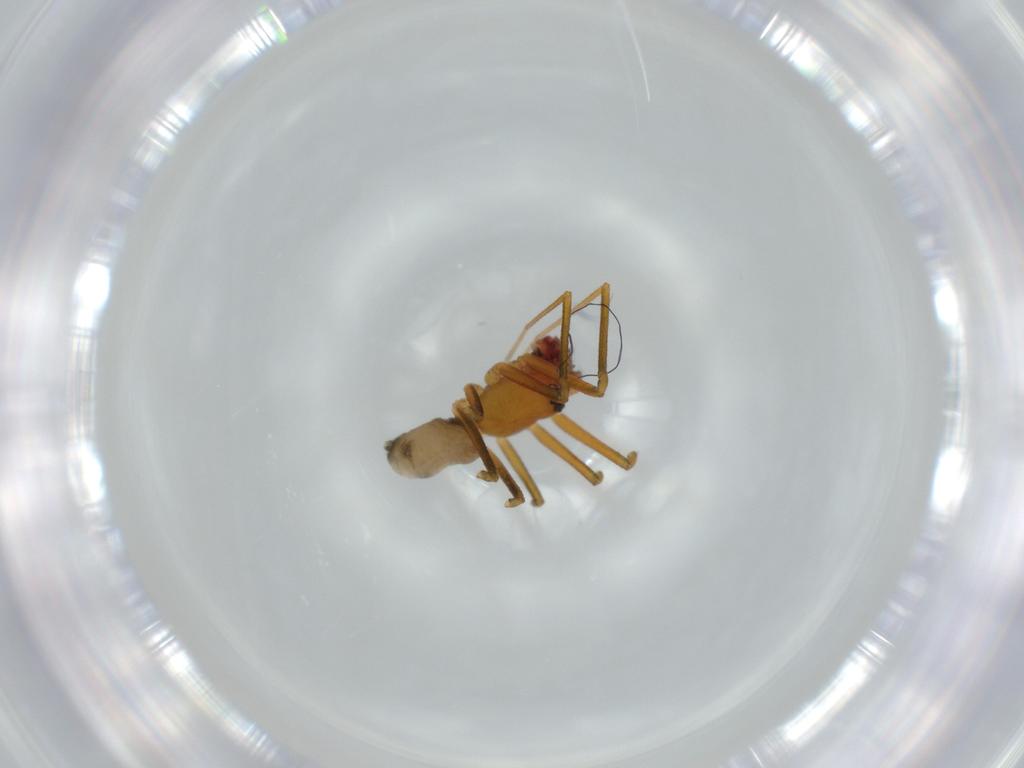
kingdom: Animalia
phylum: Arthropoda
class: Arachnida
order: Araneae
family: Linyphiidae
